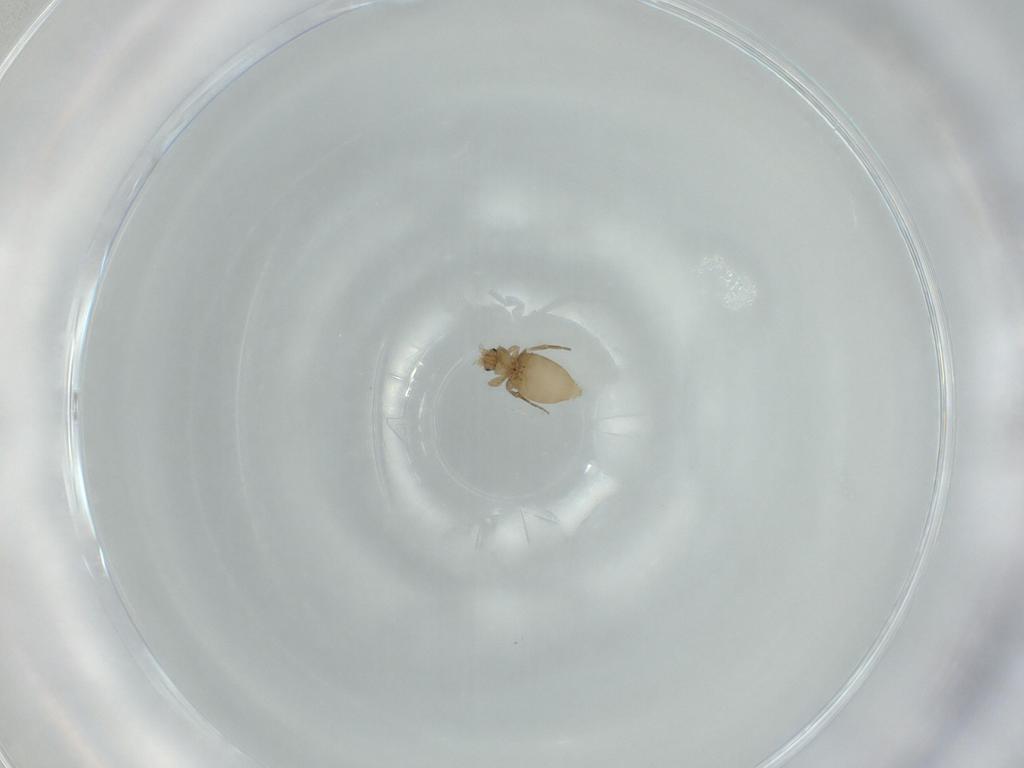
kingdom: Animalia
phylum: Arthropoda
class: Insecta
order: Diptera
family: Phoridae
